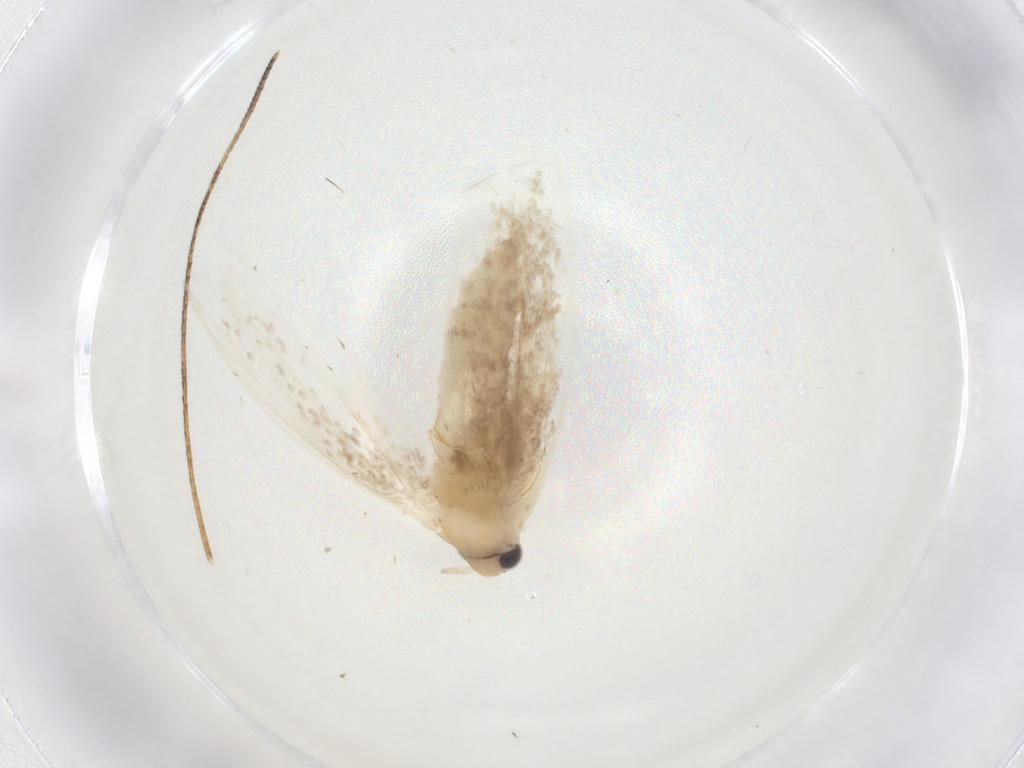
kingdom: Animalia
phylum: Arthropoda
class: Insecta
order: Lepidoptera
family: Tineidae
